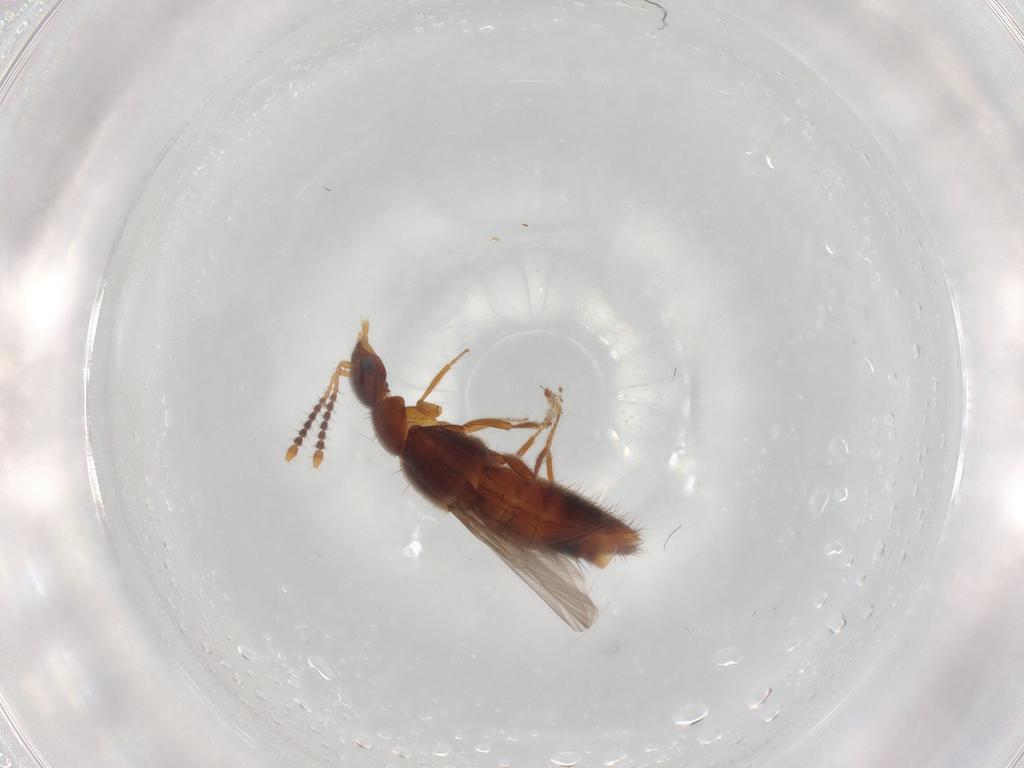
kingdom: Animalia
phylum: Arthropoda
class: Insecta
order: Coleoptera
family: Staphylinidae
